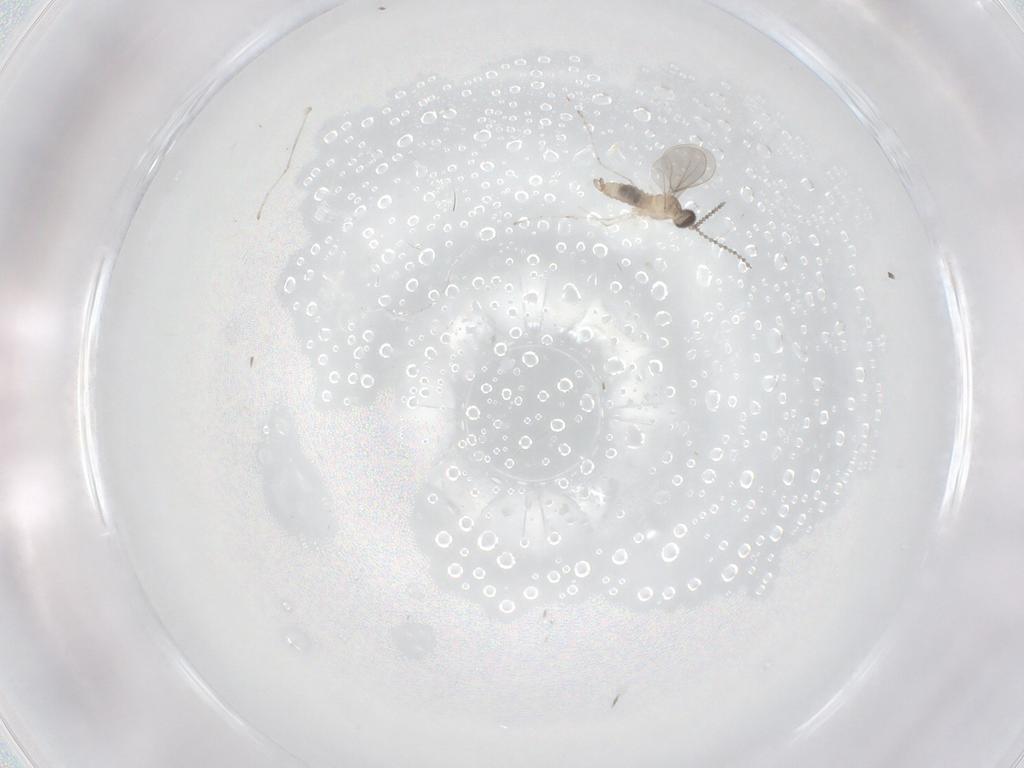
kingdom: Animalia
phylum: Arthropoda
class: Insecta
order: Diptera
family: Cecidomyiidae
